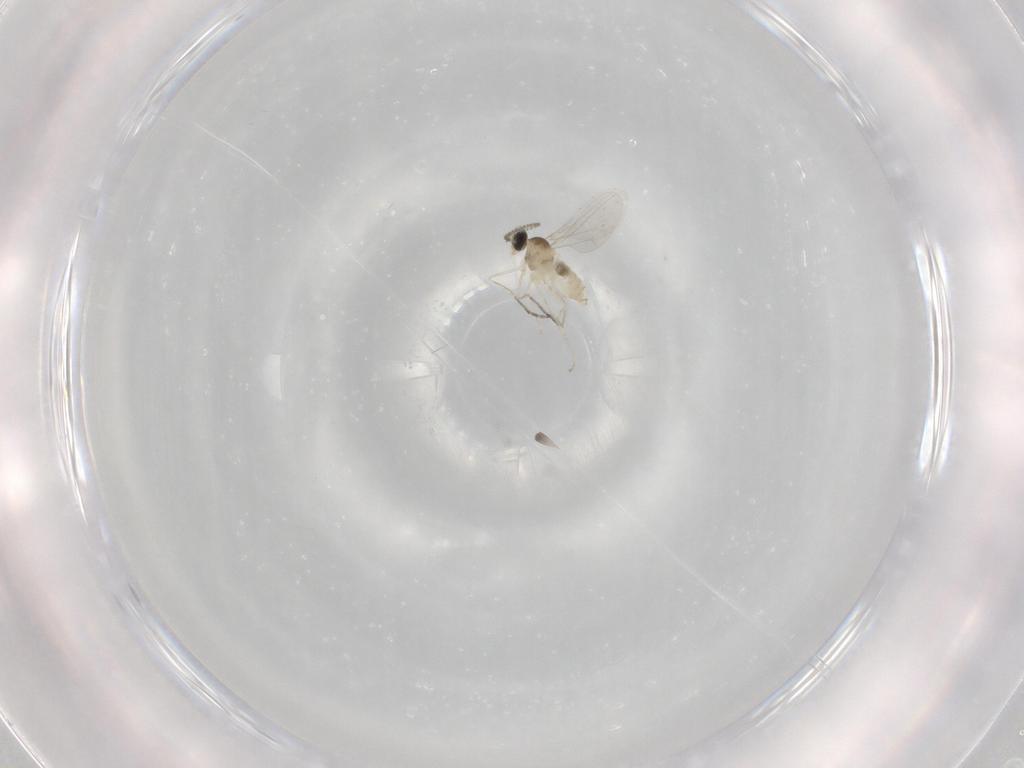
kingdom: Animalia
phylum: Arthropoda
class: Insecta
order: Diptera
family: Cecidomyiidae
